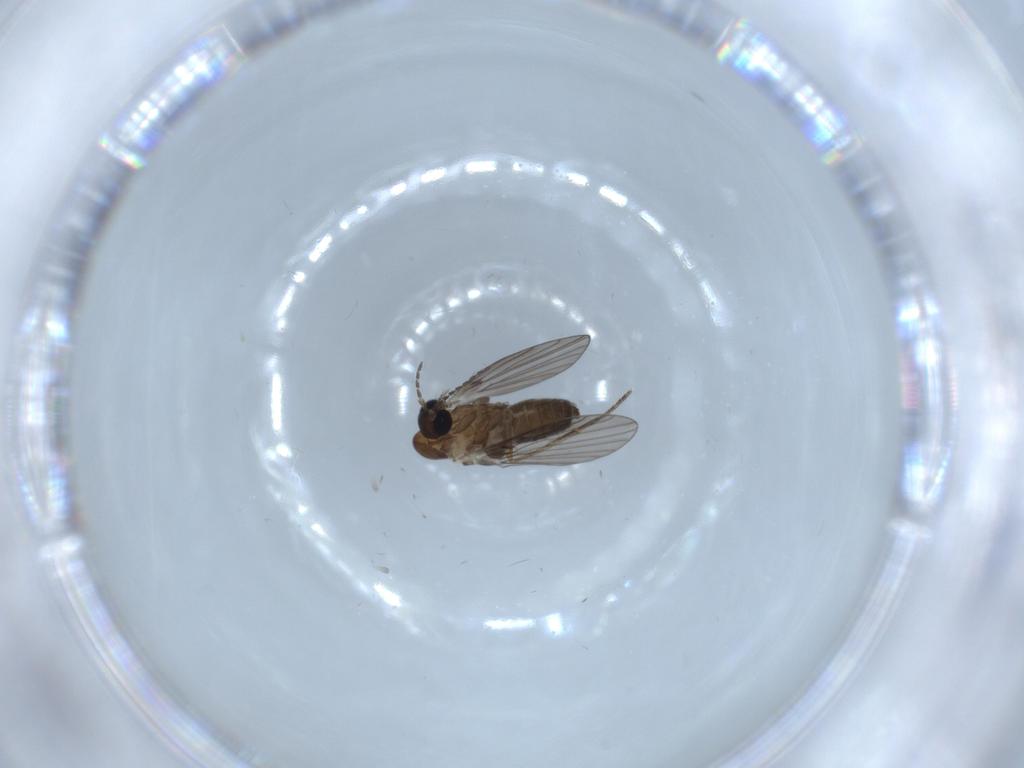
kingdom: Animalia
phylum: Arthropoda
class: Insecta
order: Diptera
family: Psychodidae
